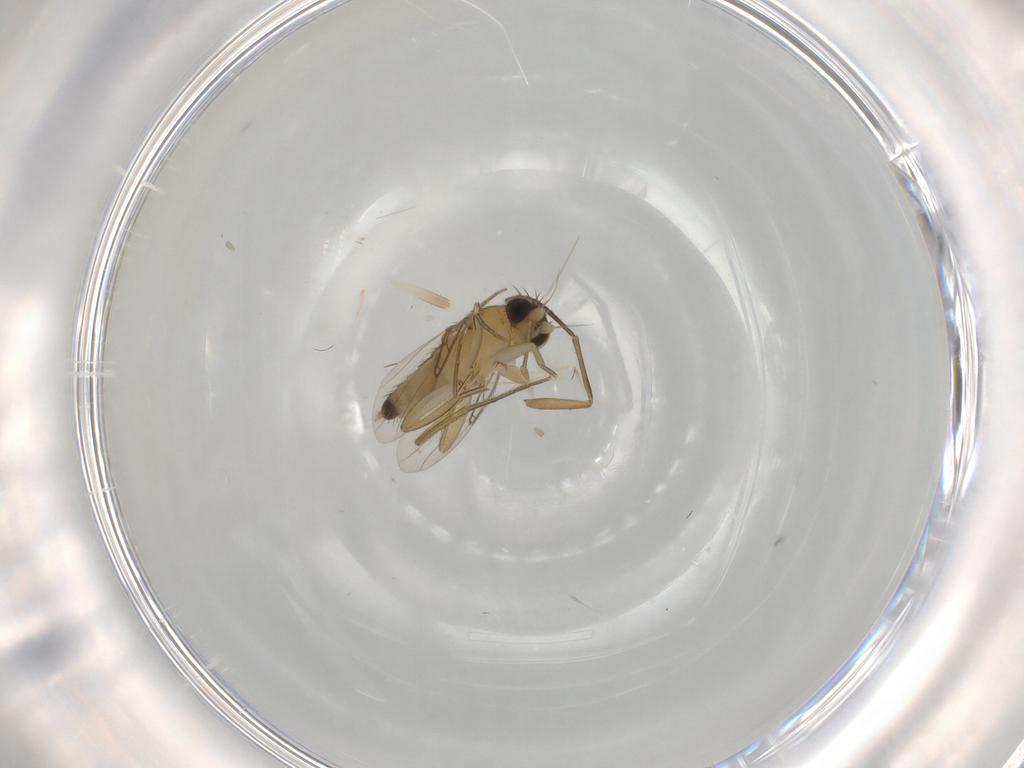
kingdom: Animalia
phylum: Arthropoda
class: Insecta
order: Diptera
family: Phoridae
